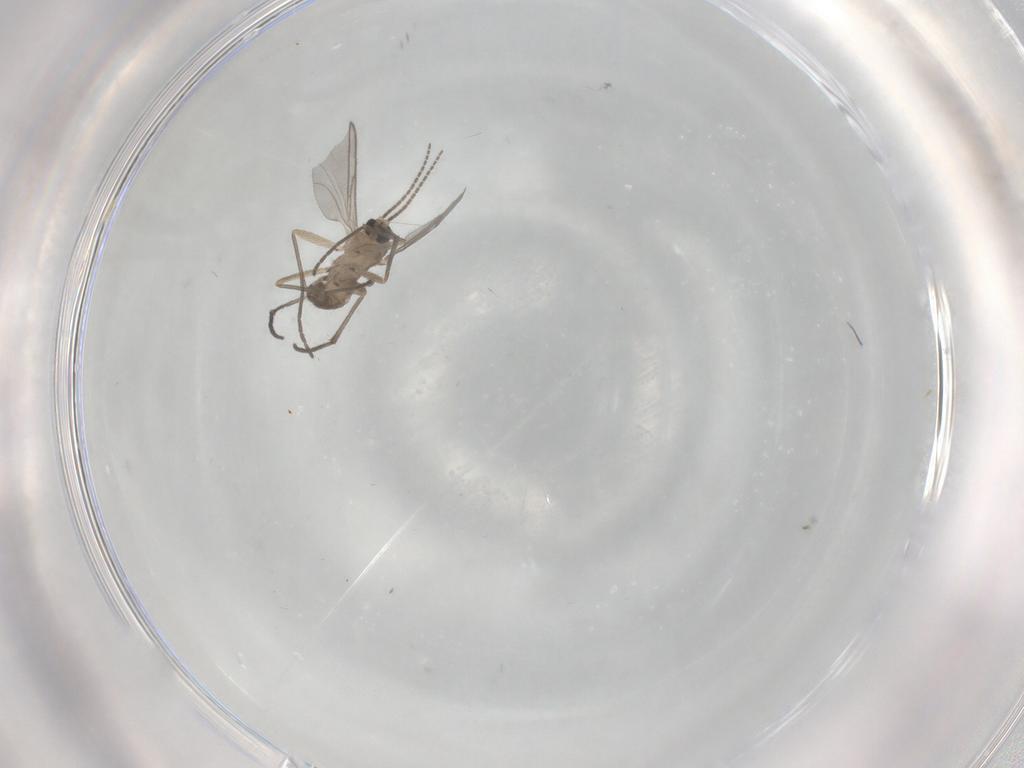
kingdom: Animalia
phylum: Arthropoda
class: Insecta
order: Diptera
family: Sciaridae
